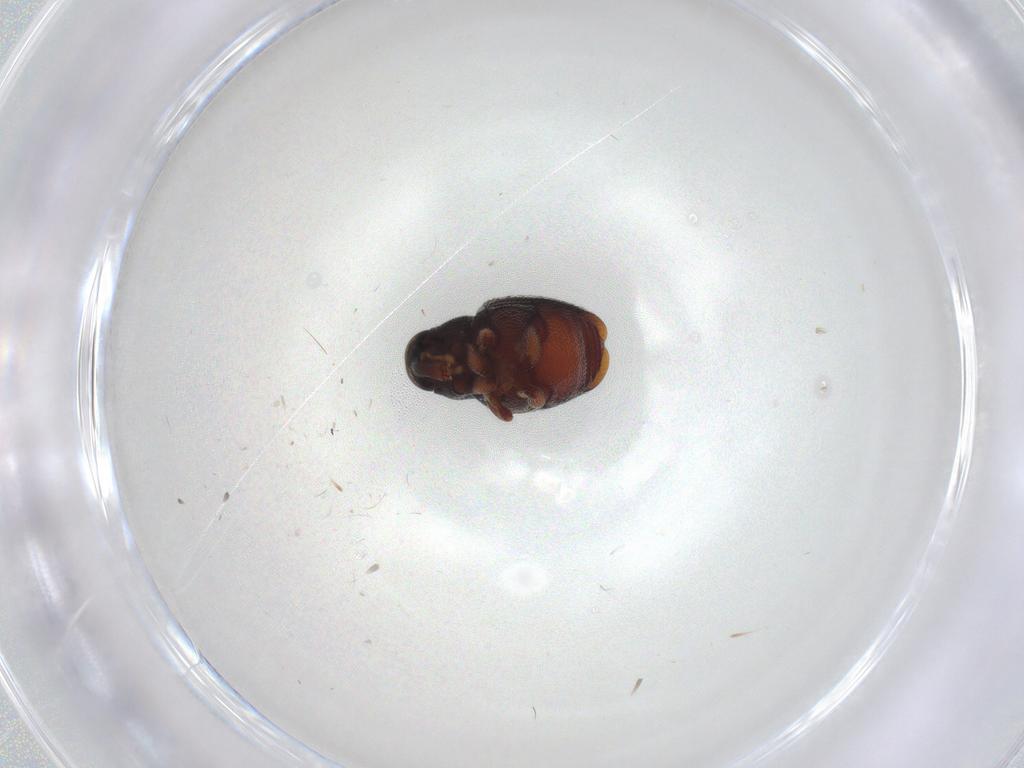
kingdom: Animalia
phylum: Arthropoda
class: Insecta
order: Coleoptera
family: Curculionidae
